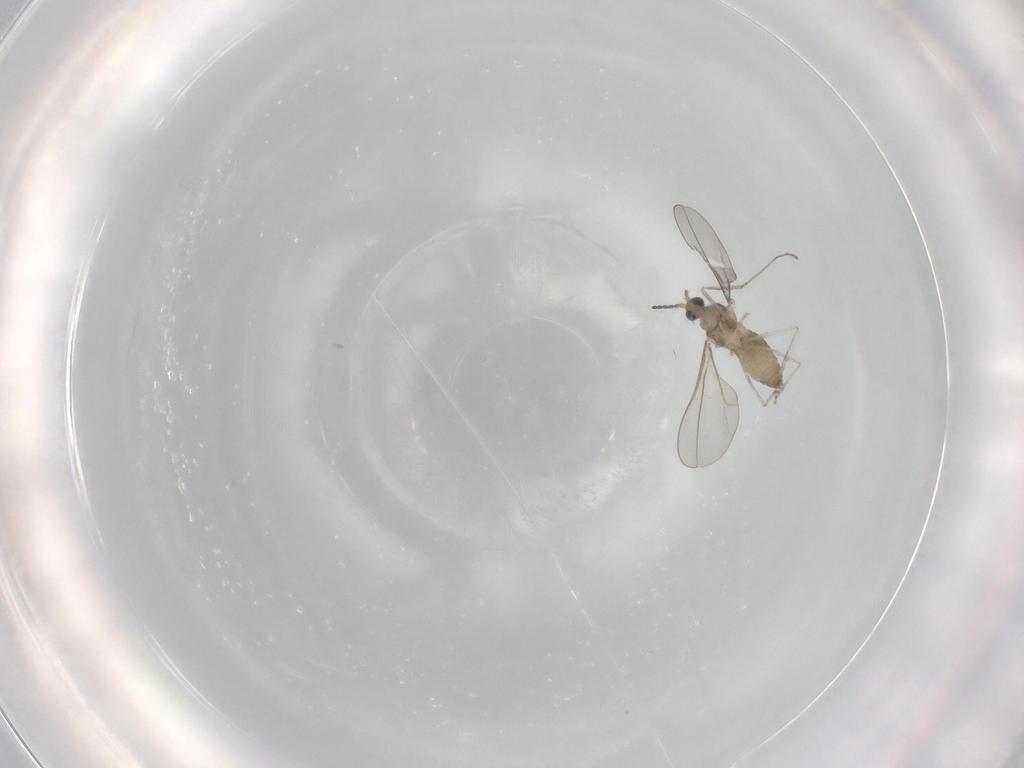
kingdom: Animalia
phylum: Arthropoda
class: Insecta
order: Diptera
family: Cecidomyiidae
